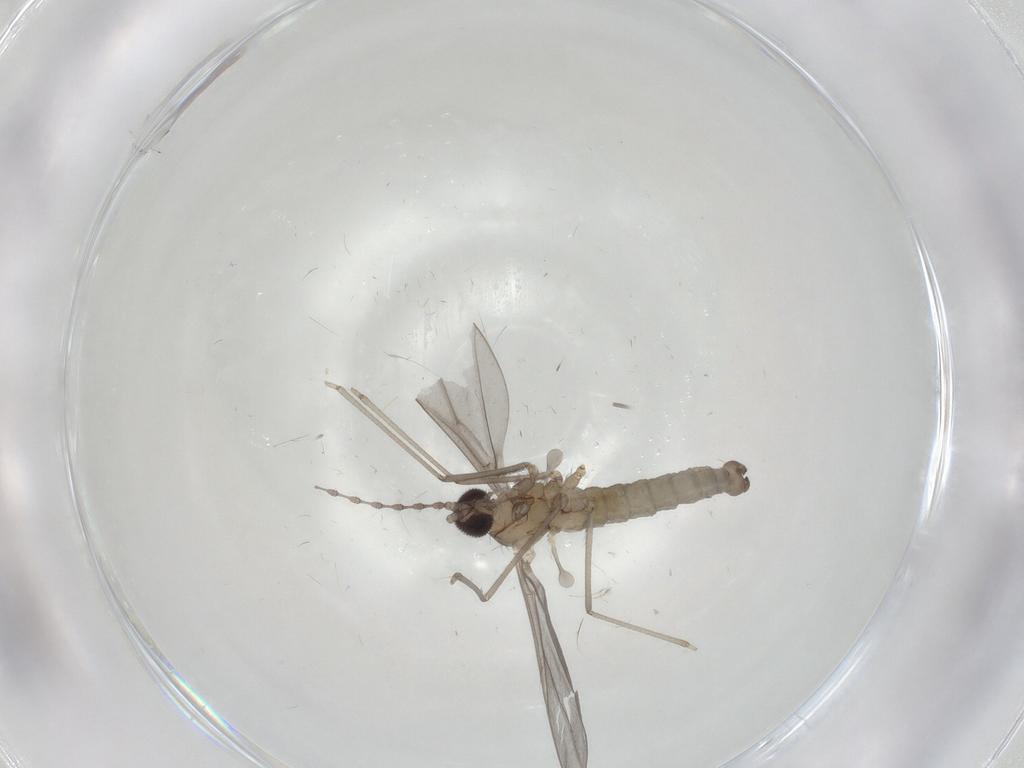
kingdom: Animalia
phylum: Arthropoda
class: Insecta
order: Diptera
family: Cecidomyiidae
